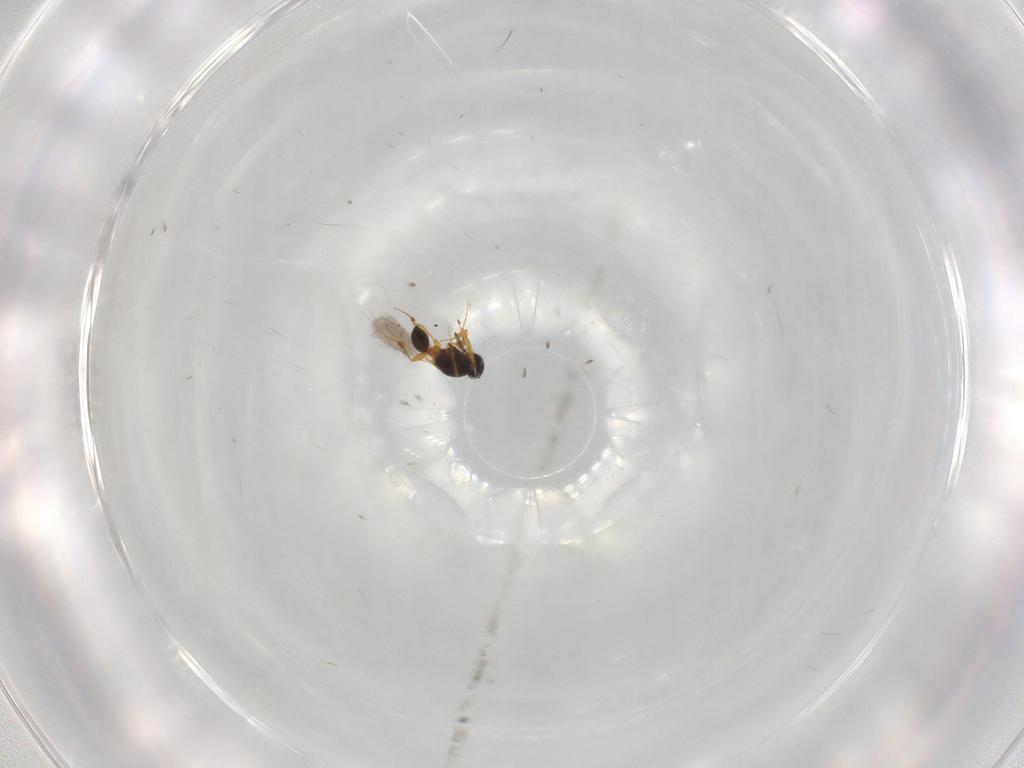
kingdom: Animalia
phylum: Arthropoda
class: Insecta
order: Hymenoptera
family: Platygastridae
